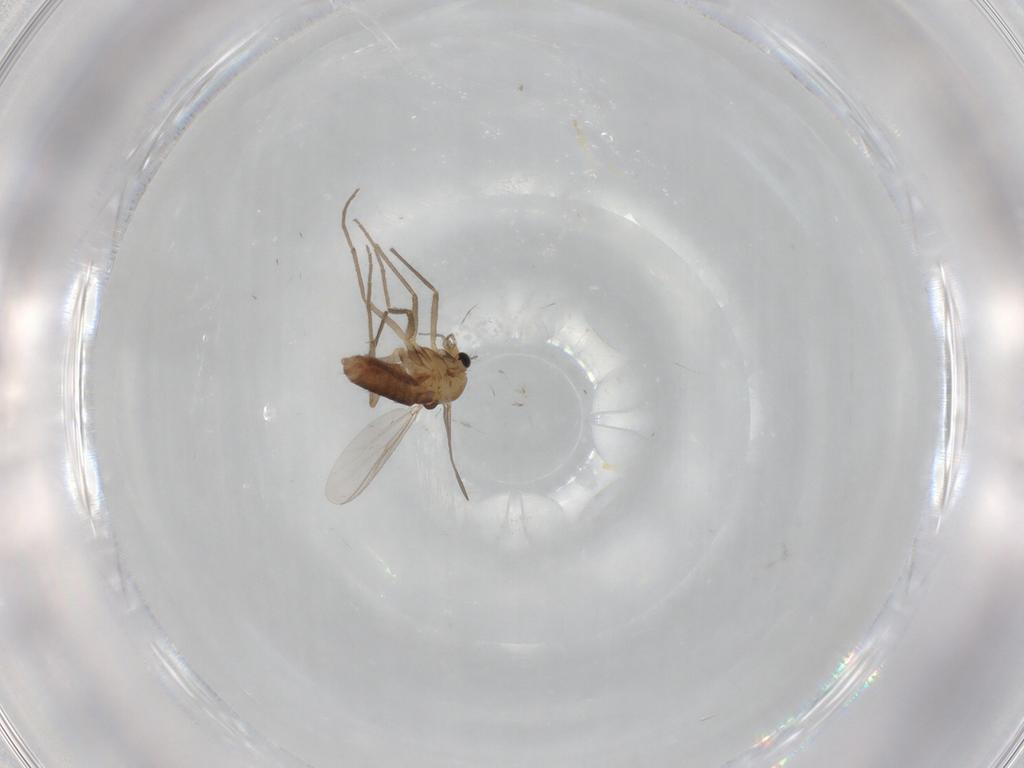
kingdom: Animalia
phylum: Arthropoda
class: Insecta
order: Diptera
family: Chironomidae
